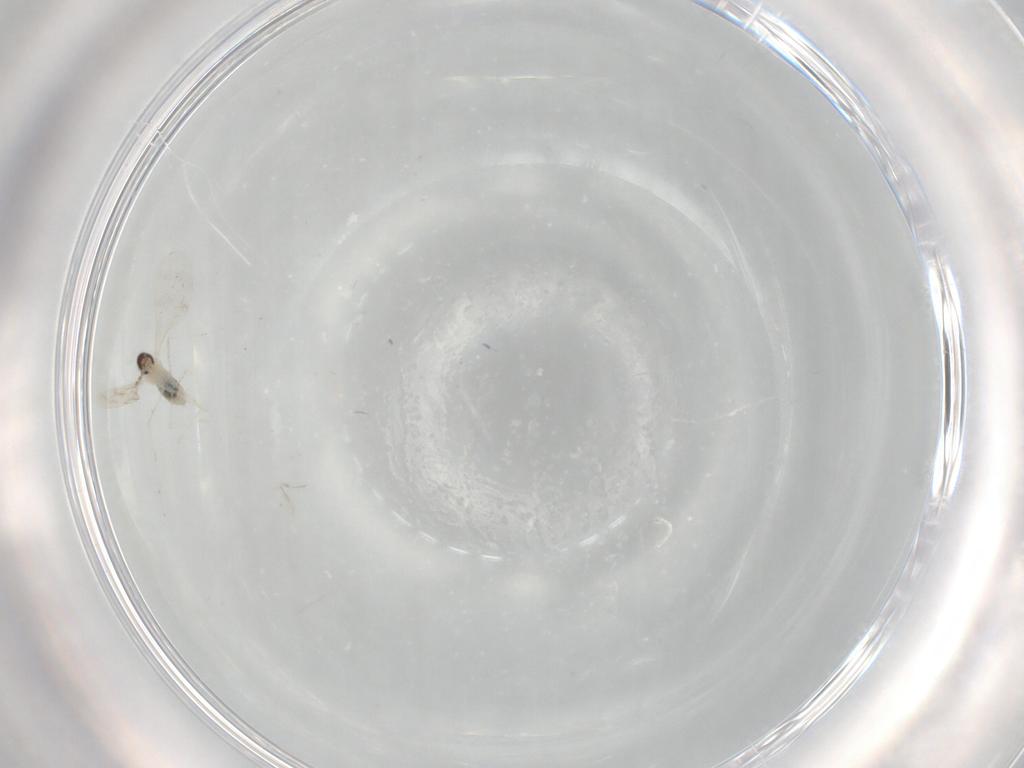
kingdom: Animalia
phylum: Arthropoda
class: Insecta
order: Diptera
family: Cecidomyiidae
